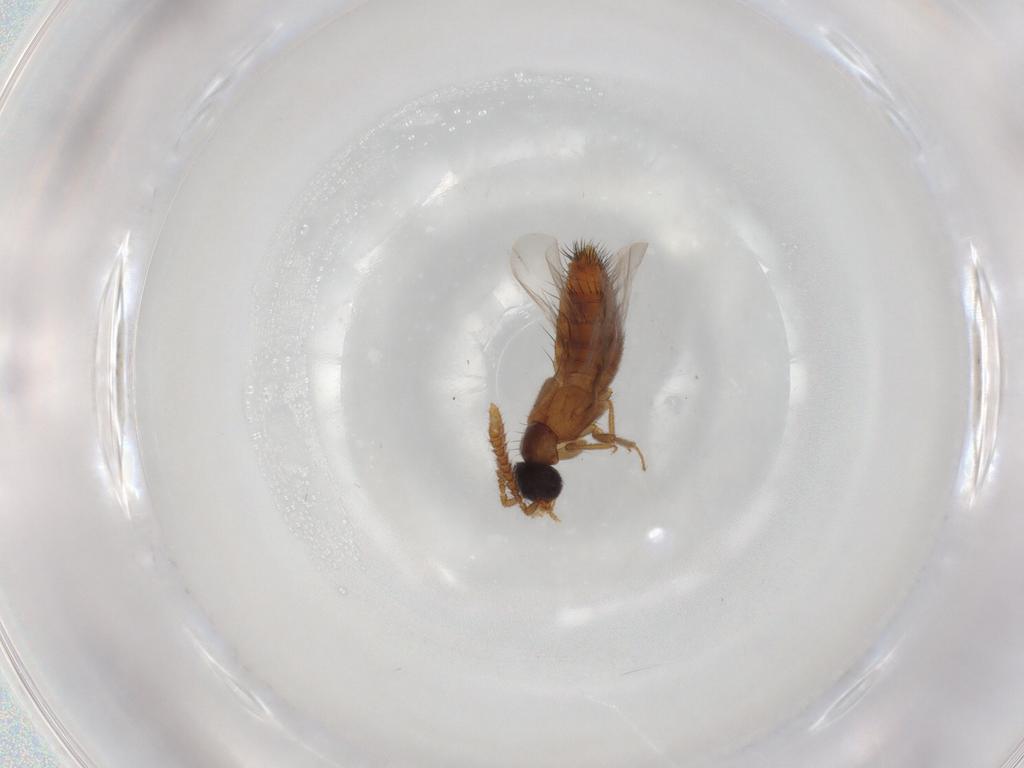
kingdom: Animalia
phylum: Arthropoda
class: Insecta
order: Coleoptera
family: Staphylinidae
